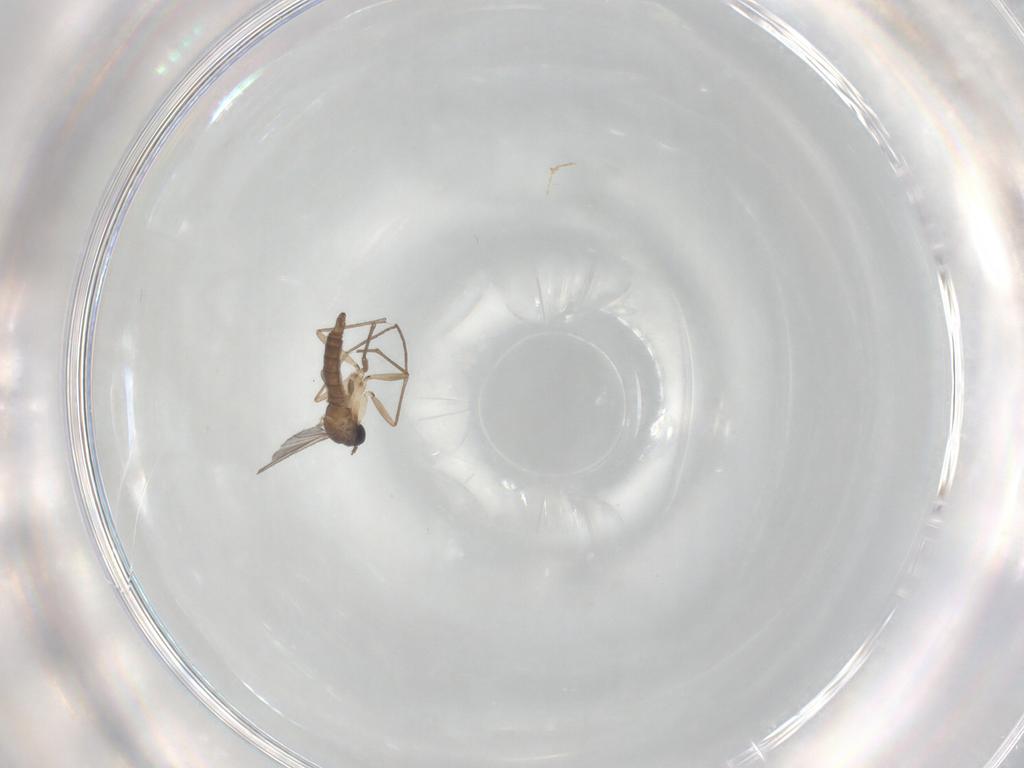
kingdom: Animalia
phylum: Arthropoda
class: Insecta
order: Diptera
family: Sciaridae
